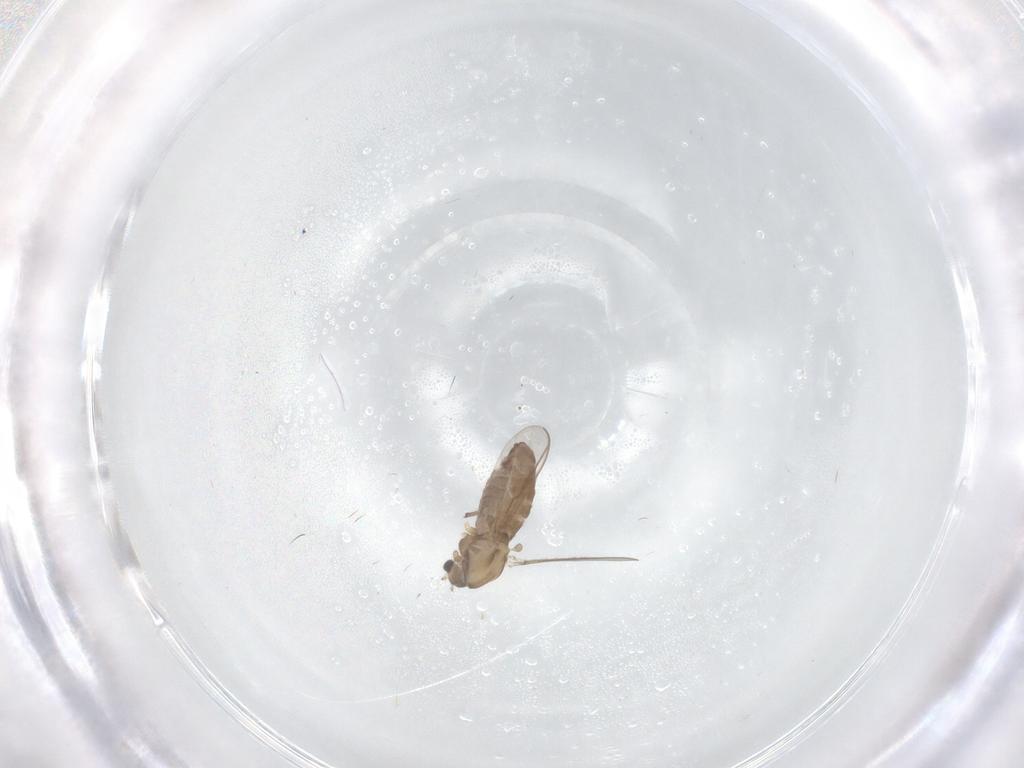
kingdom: Animalia
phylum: Arthropoda
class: Insecta
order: Diptera
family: Chironomidae
